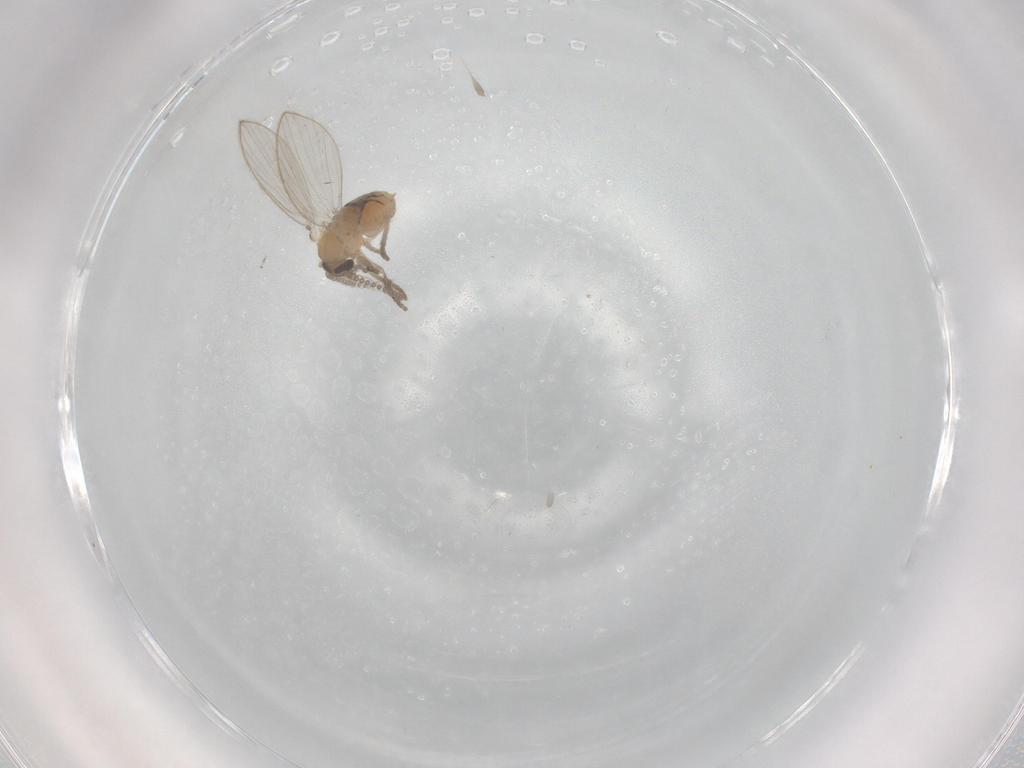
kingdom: Animalia
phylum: Arthropoda
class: Insecta
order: Diptera
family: Psychodidae
